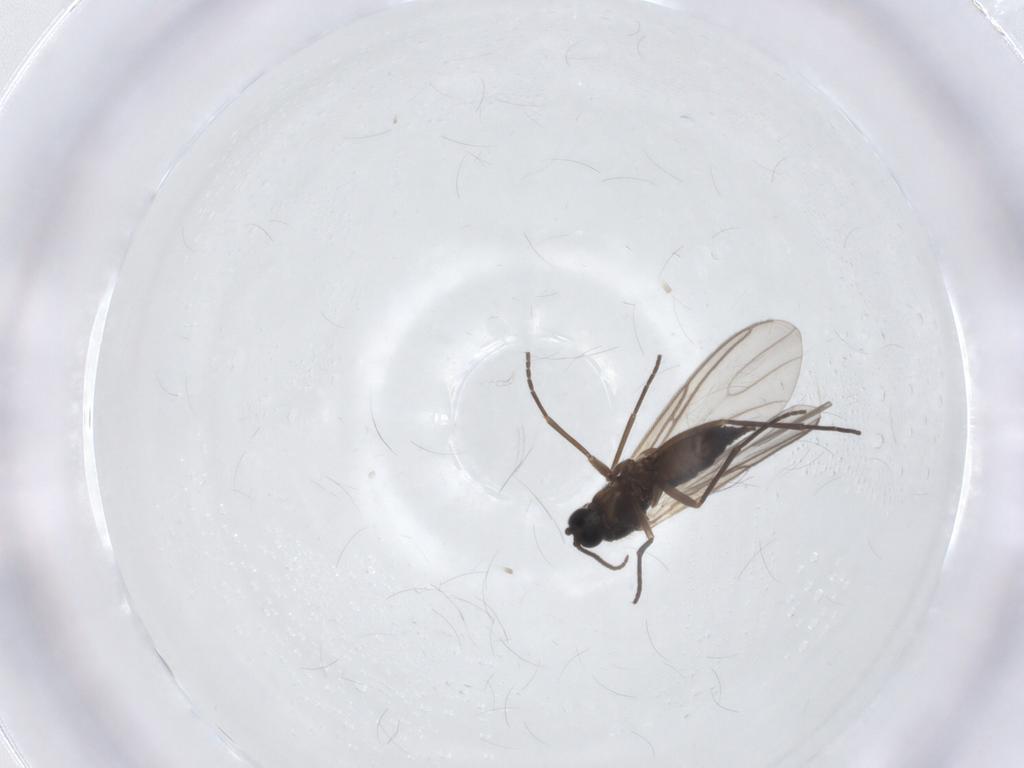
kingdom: Animalia
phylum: Arthropoda
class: Insecta
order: Diptera
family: Sciaridae
